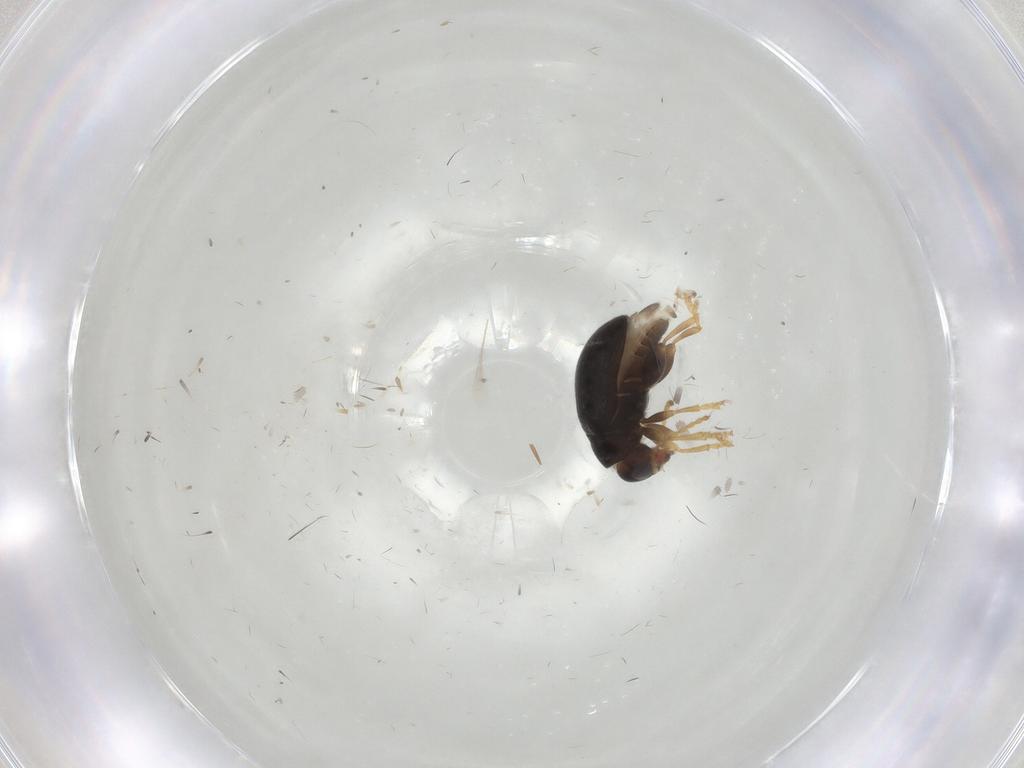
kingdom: Animalia
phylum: Arthropoda
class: Insecta
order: Coleoptera
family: Chrysomelidae
